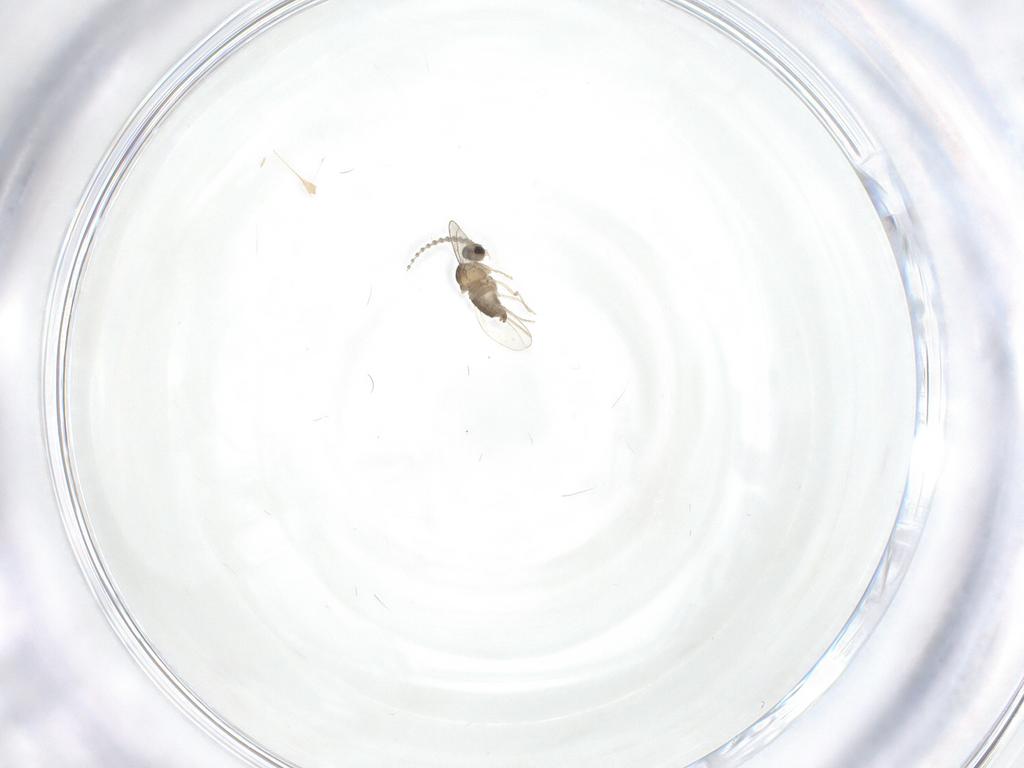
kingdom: Animalia
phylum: Arthropoda
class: Insecta
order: Diptera
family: Cecidomyiidae
